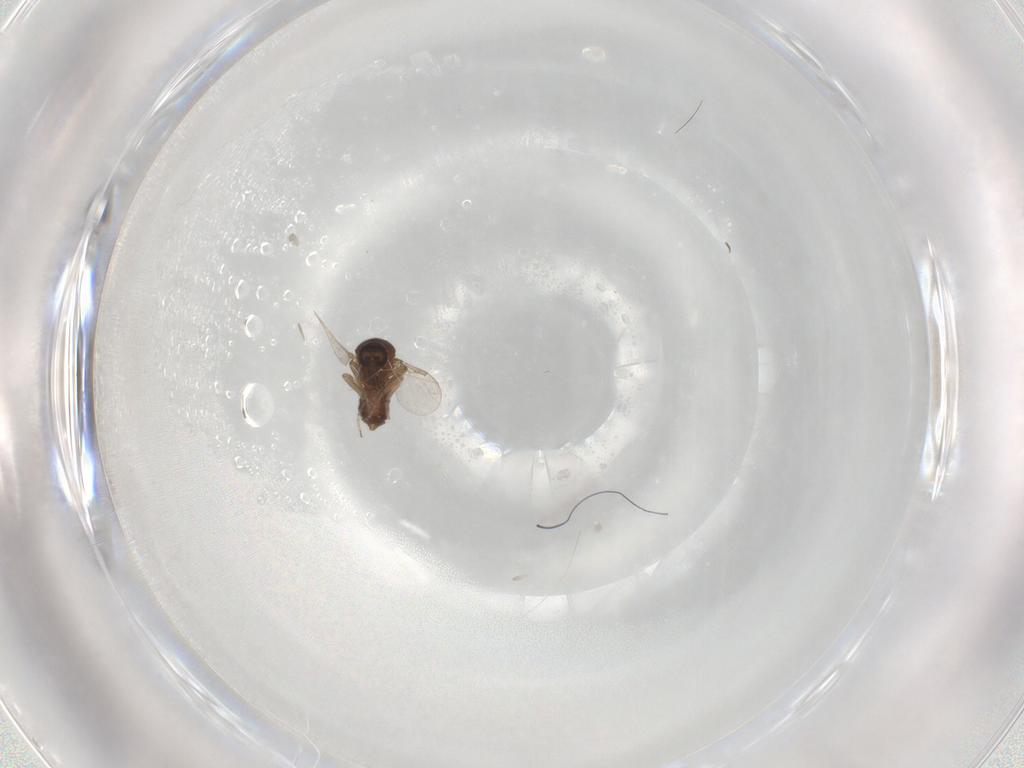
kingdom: Animalia
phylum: Arthropoda
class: Insecta
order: Diptera
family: Ceratopogonidae
